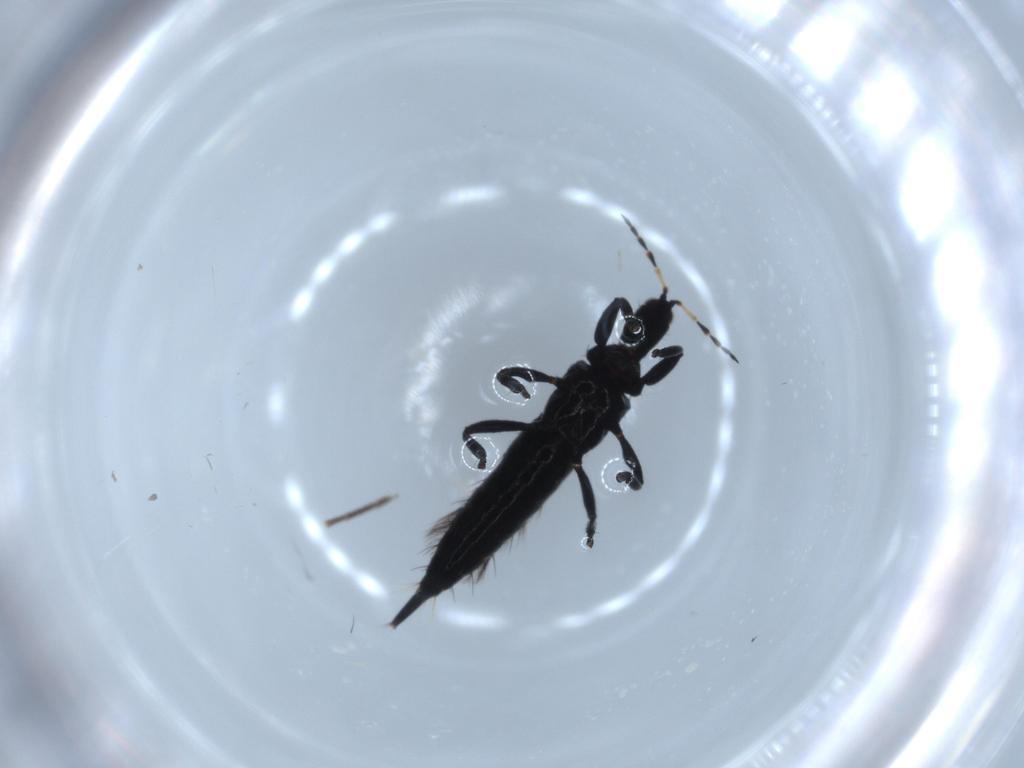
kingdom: Animalia
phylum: Arthropoda
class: Insecta
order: Thysanoptera
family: Phlaeothripidae
